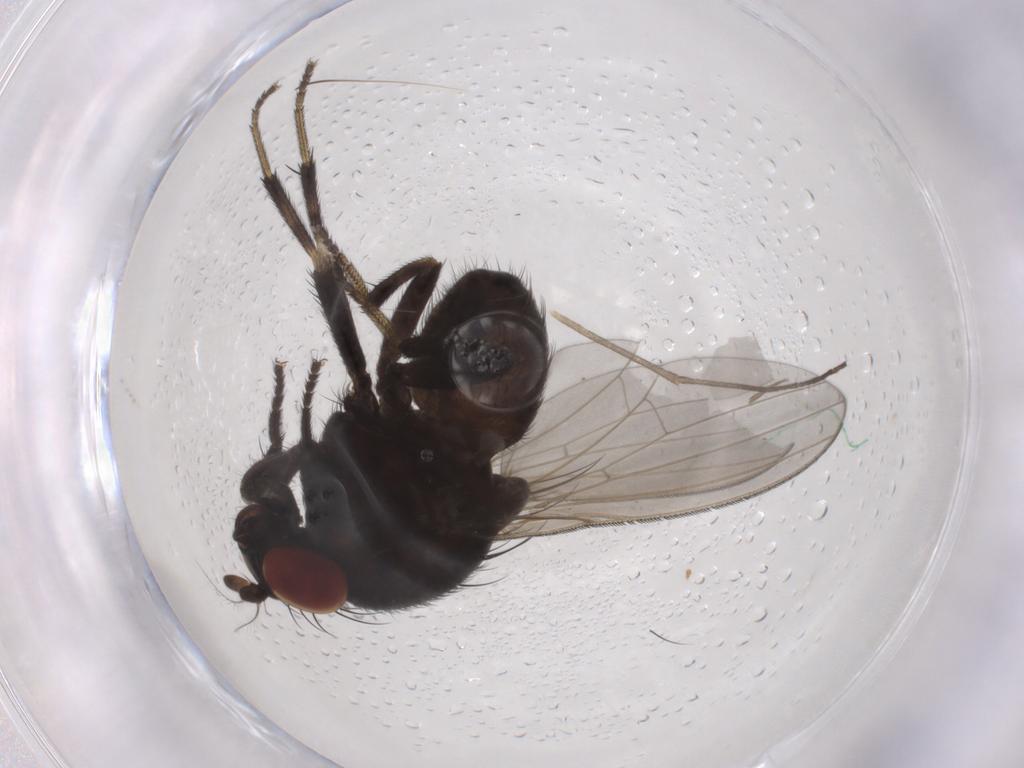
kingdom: Animalia
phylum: Arthropoda
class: Insecta
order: Diptera
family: Lauxaniidae
